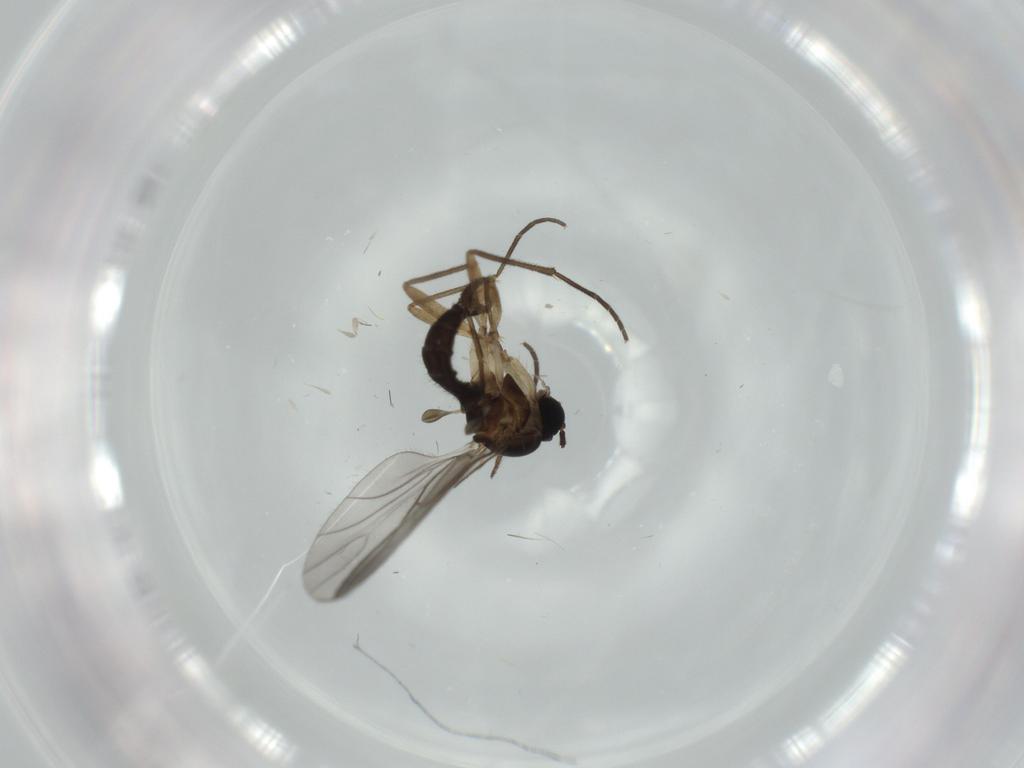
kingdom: Animalia
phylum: Arthropoda
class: Insecta
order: Diptera
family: Sciaridae
